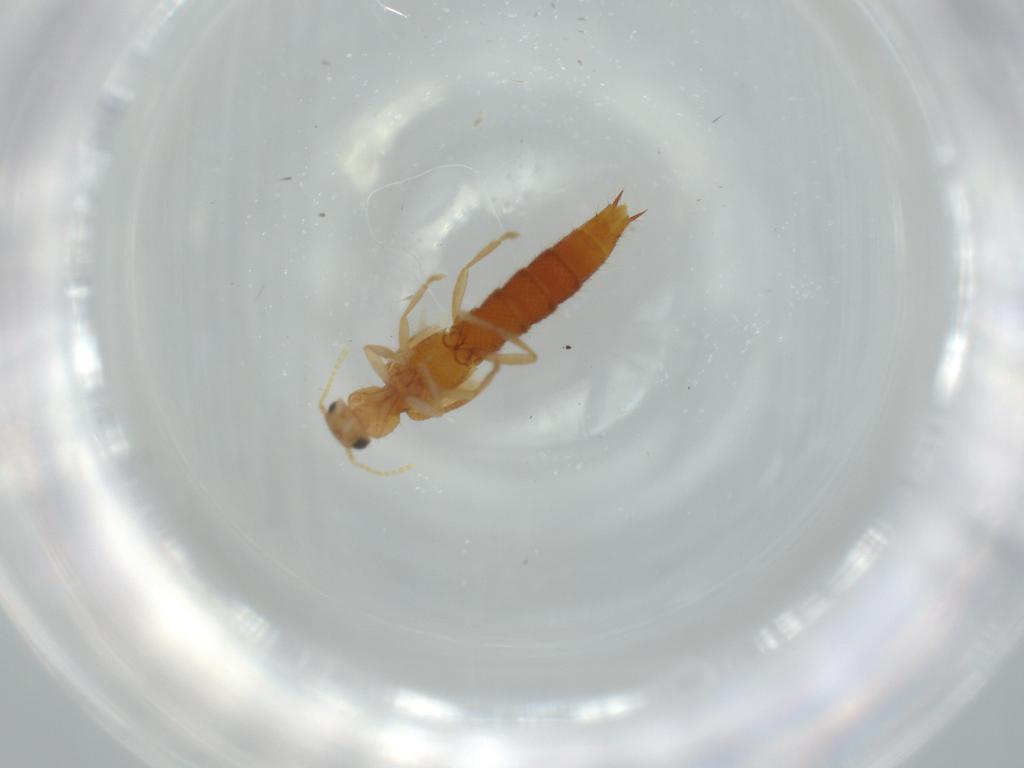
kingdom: Animalia
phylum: Arthropoda
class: Insecta
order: Coleoptera
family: Staphylinidae
